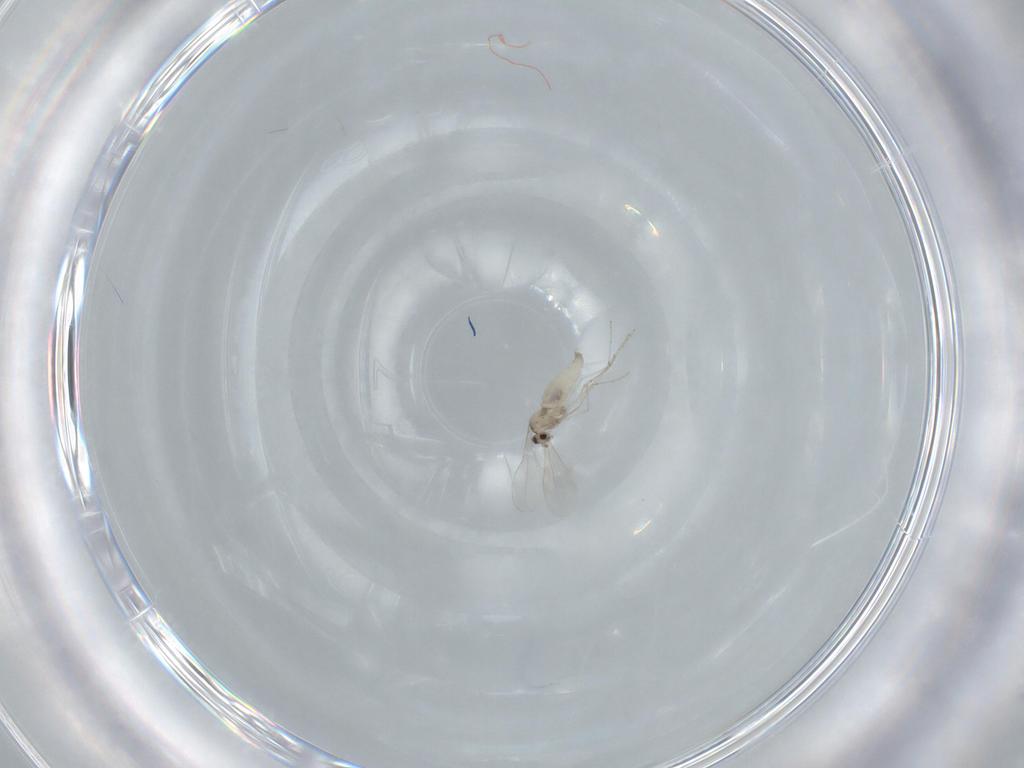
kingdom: Animalia
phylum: Arthropoda
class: Insecta
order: Diptera
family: Cecidomyiidae
